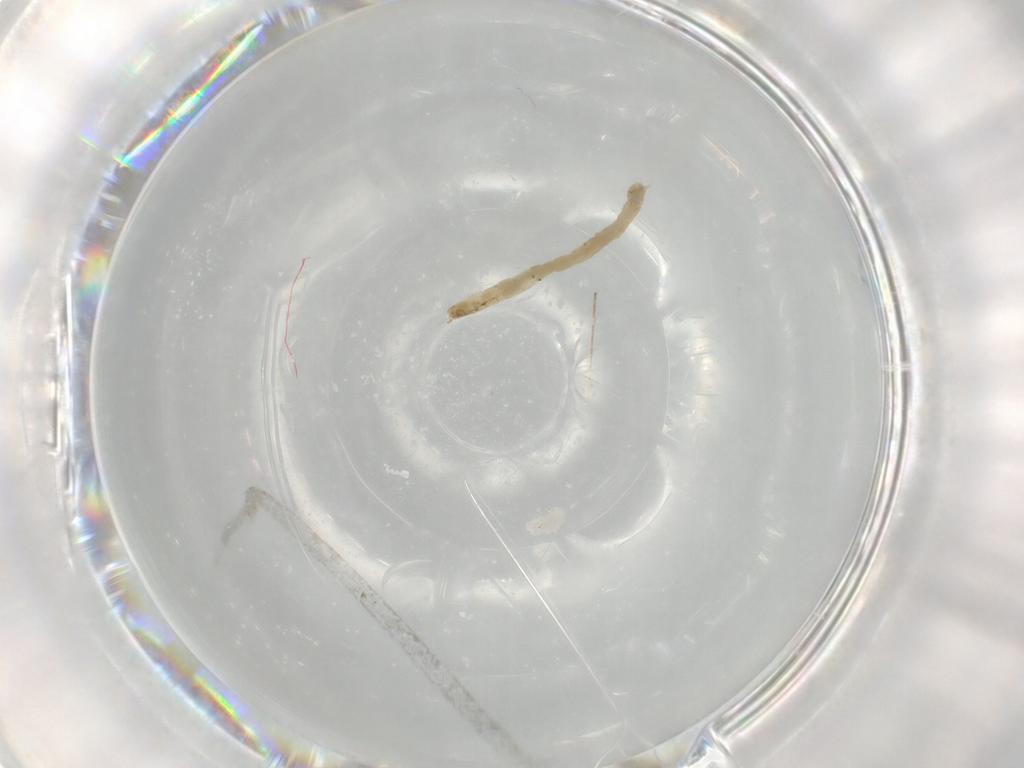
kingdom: Animalia
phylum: Arthropoda
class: Insecta
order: Diptera
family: Chironomidae
